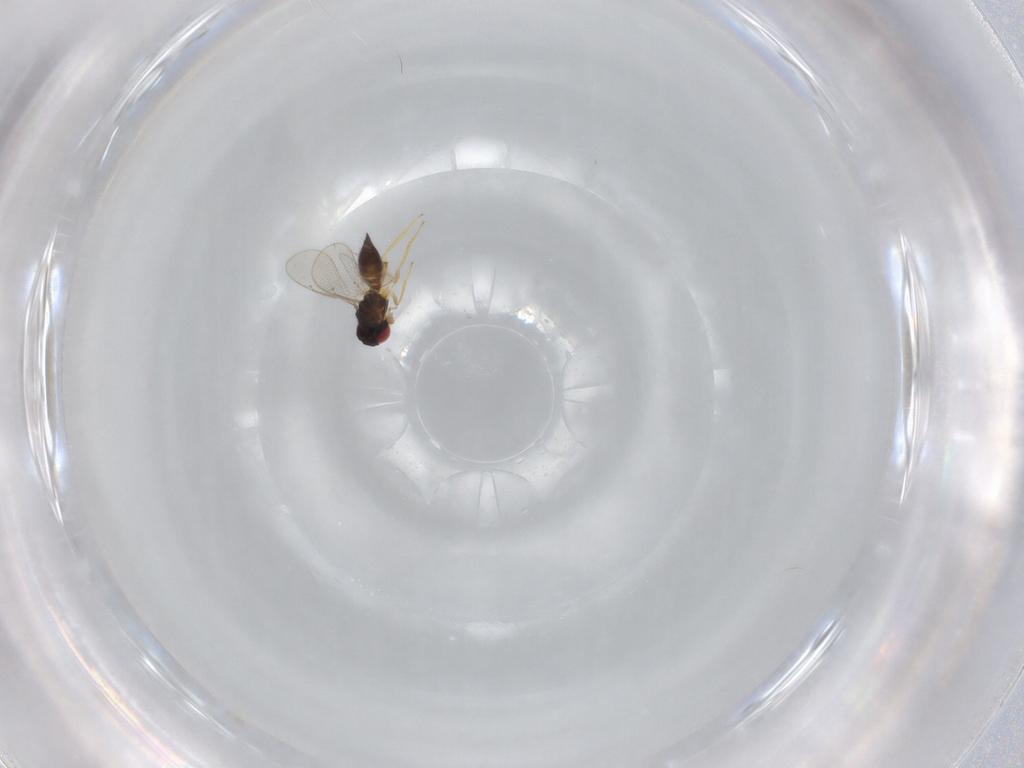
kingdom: Animalia
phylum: Arthropoda
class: Insecta
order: Hymenoptera
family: Eulophidae
